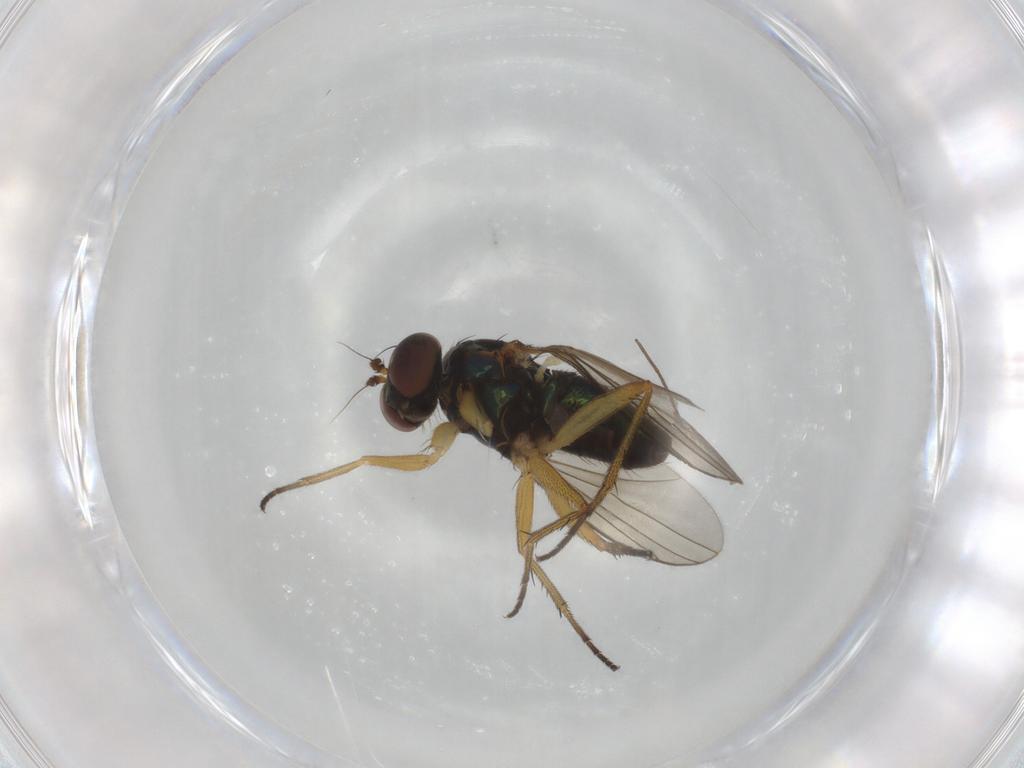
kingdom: Animalia
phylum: Arthropoda
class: Insecta
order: Diptera
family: Dolichopodidae
